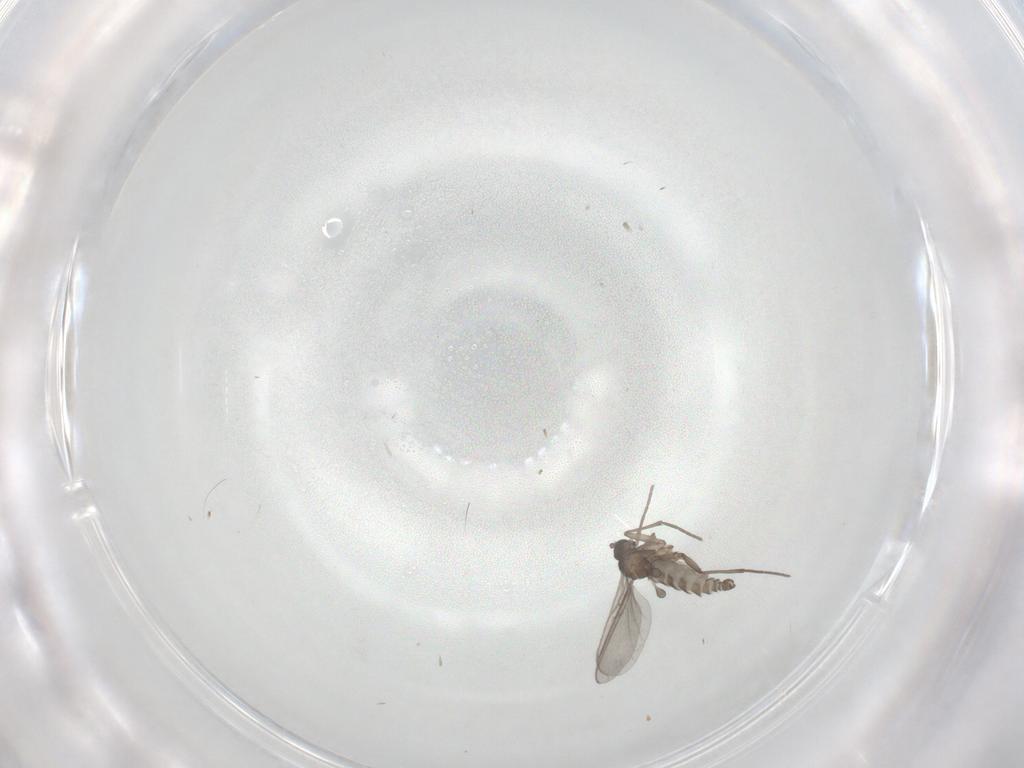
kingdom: Animalia
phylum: Arthropoda
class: Insecta
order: Diptera
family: Sciaridae
